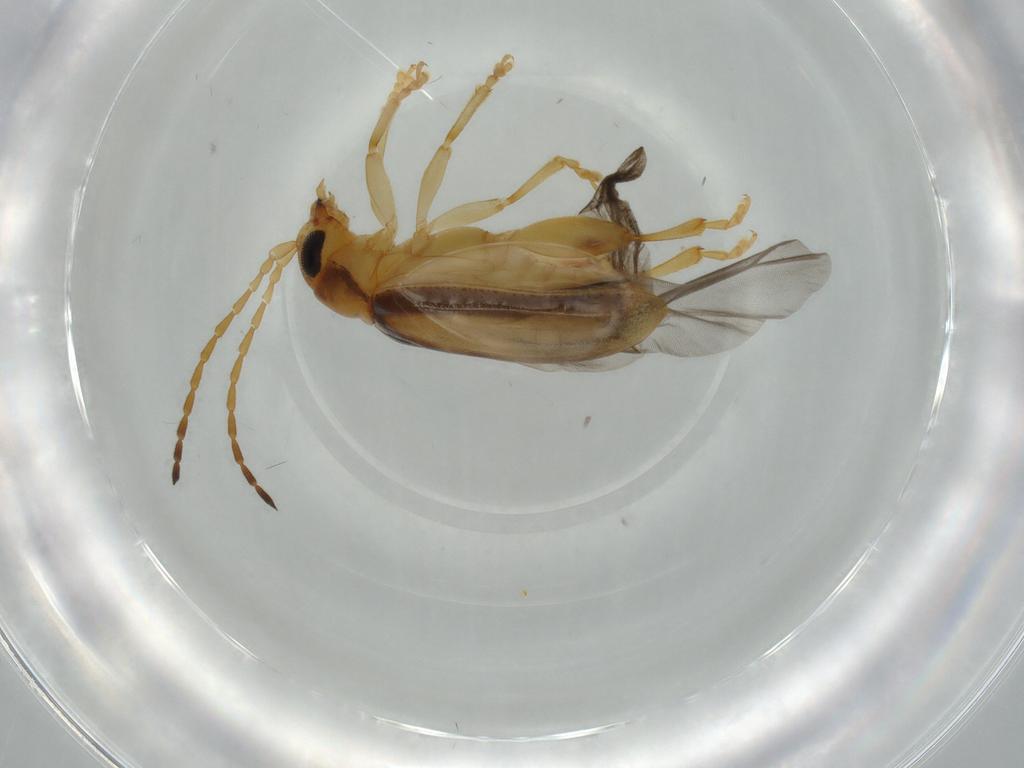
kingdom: Animalia
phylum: Arthropoda
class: Insecta
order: Coleoptera
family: Chrysomelidae
